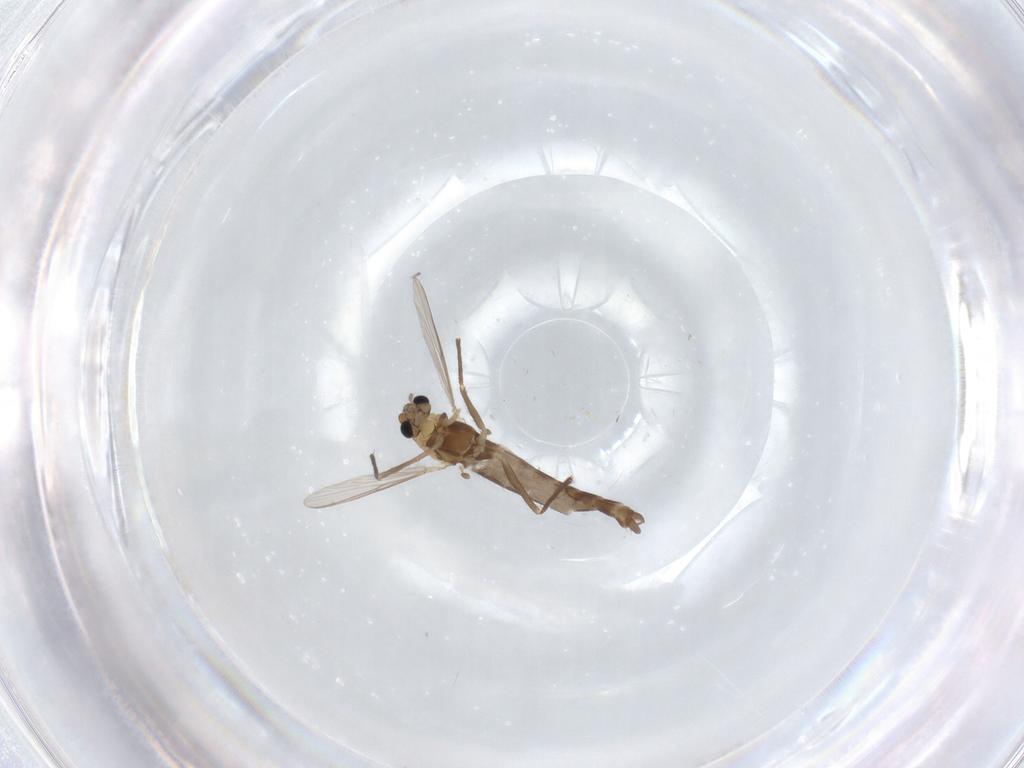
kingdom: Animalia
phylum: Arthropoda
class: Insecta
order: Diptera
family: Chironomidae
